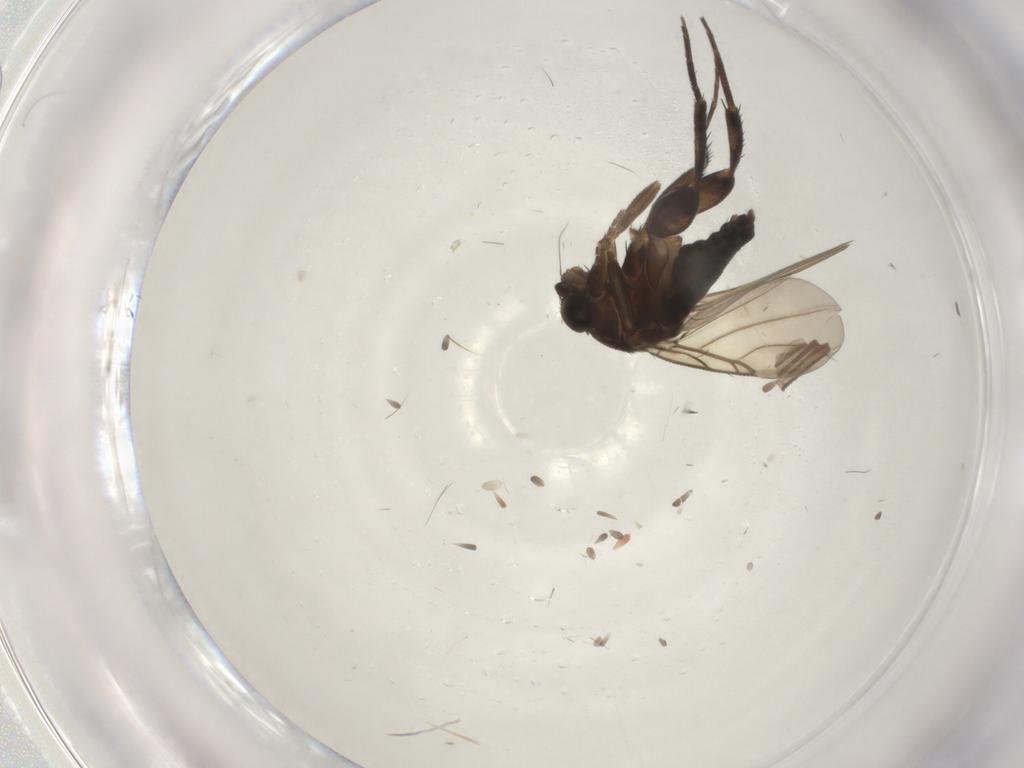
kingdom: Animalia
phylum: Arthropoda
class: Insecta
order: Diptera
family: Phoridae
